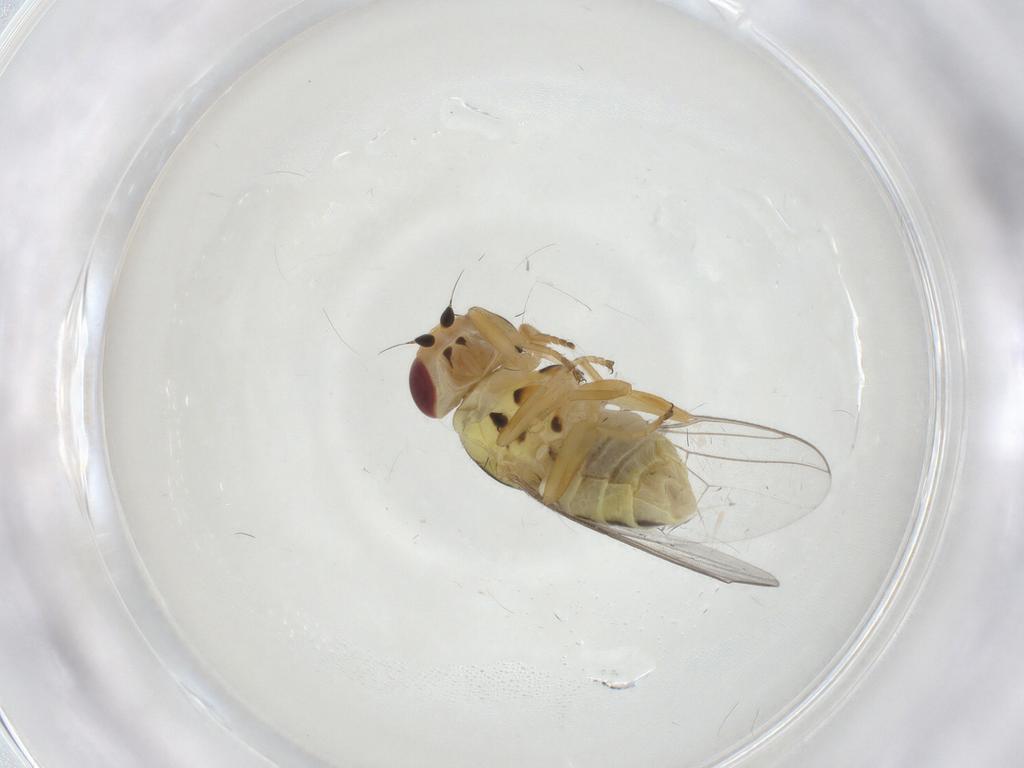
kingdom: Animalia
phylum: Arthropoda
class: Insecta
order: Diptera
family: Chloropidae
